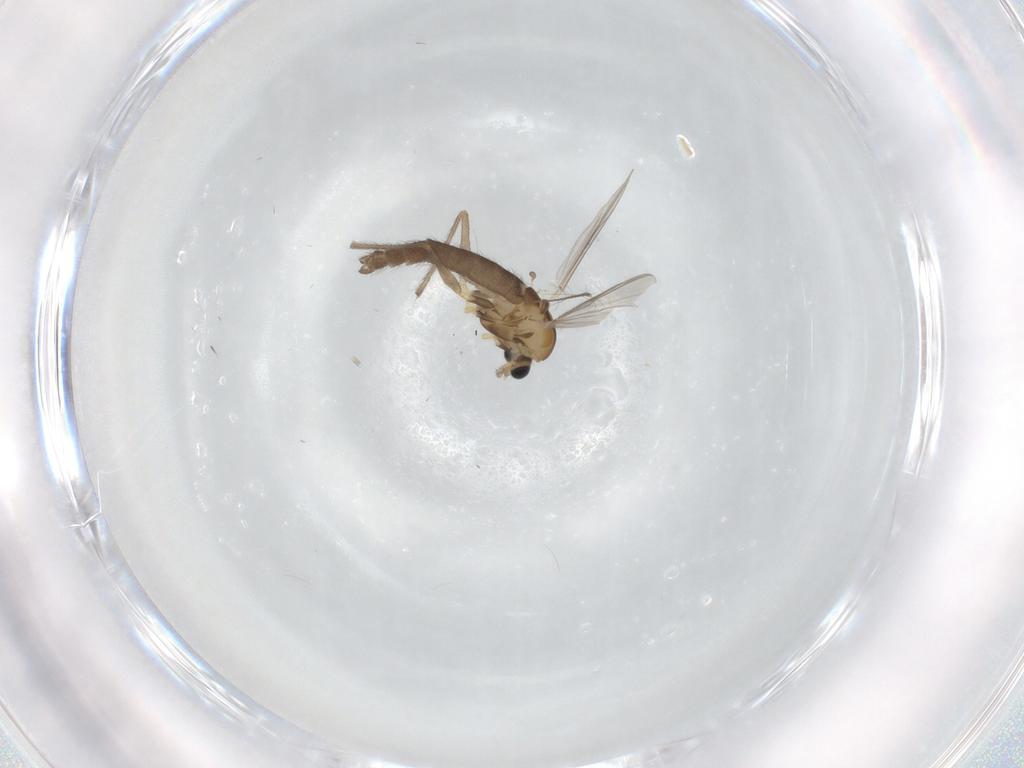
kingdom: Animalia
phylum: Arthropoda
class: Insecta
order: Diptera
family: Chironomidae
